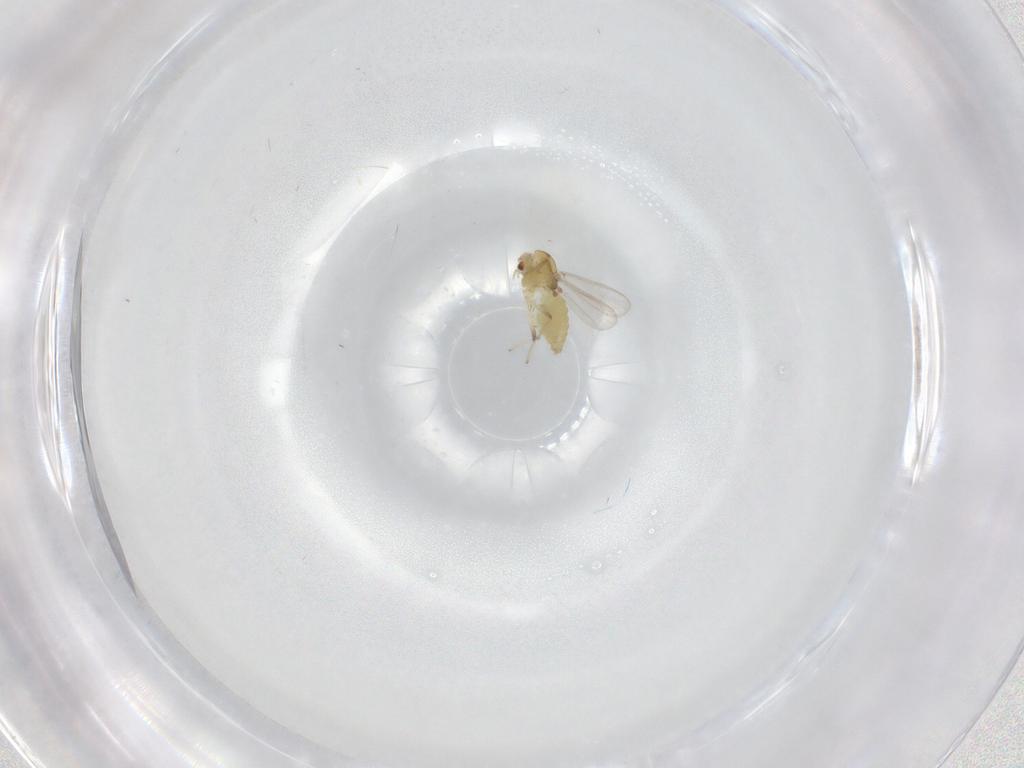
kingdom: Animalia
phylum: Arthropoda
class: Insecta
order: Diptera
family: Chironomidae
